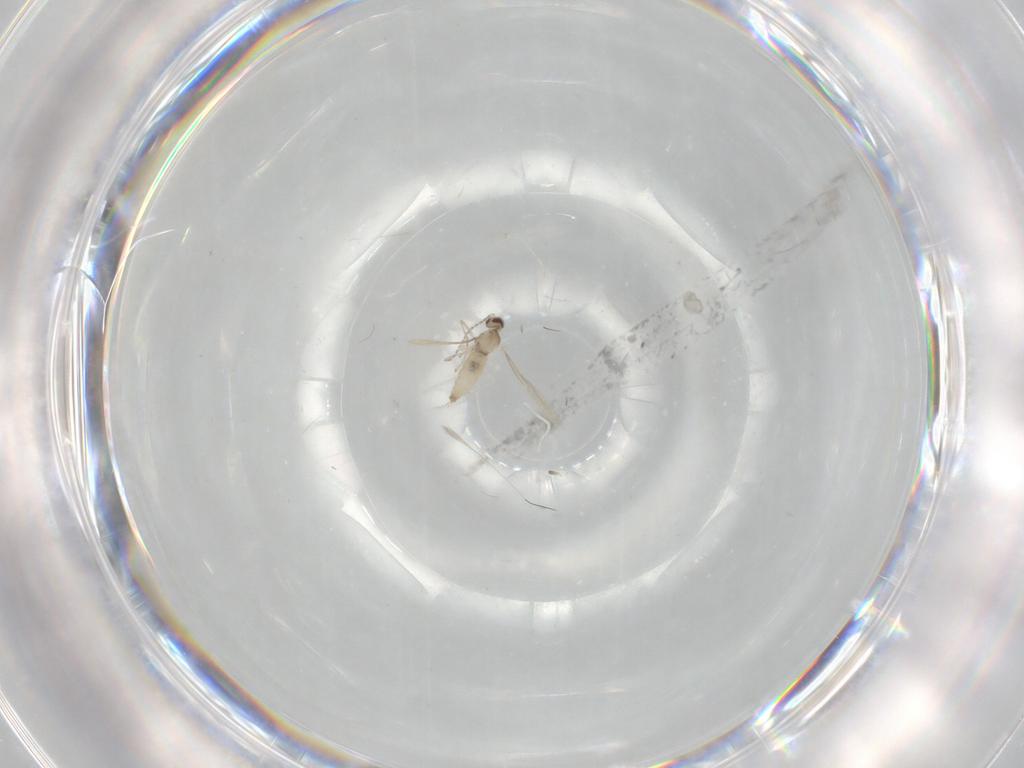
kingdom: Animalia
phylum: Arthropoda
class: Insecta
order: Diptera
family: Cecidomyiidae
